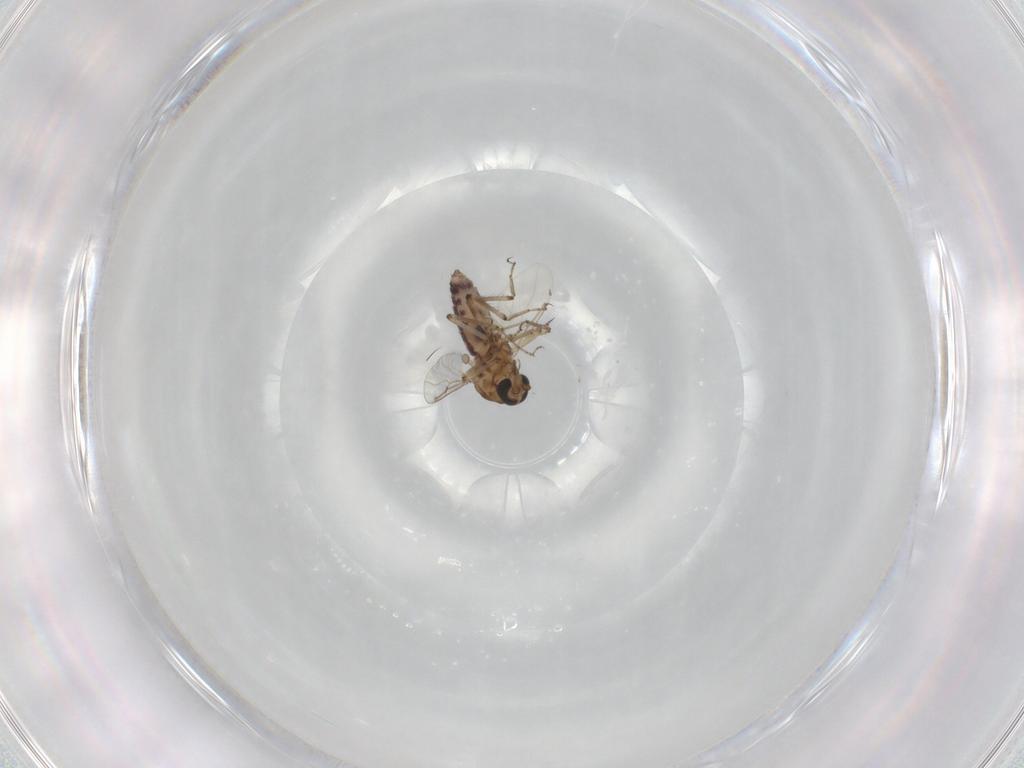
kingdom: Animalia
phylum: Arthropoda
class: Insecta
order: Diptera
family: Ceratopogonidae
